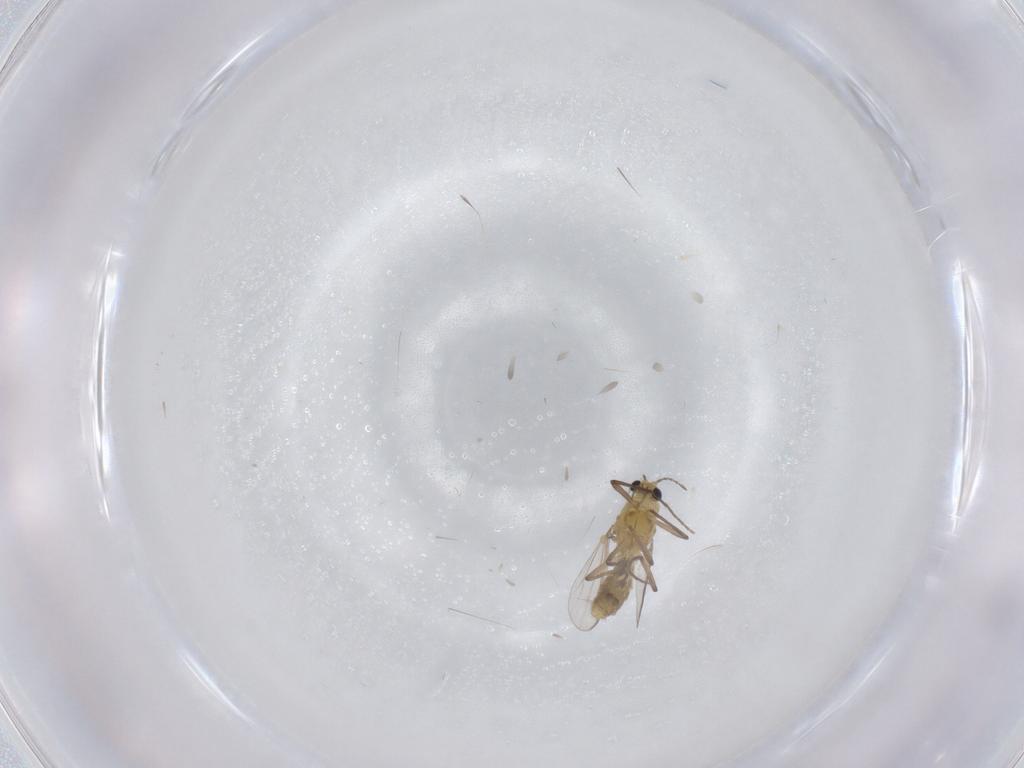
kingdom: Animalia
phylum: Arthropoda
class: Insecta
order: Diptera
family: Chironomidae
